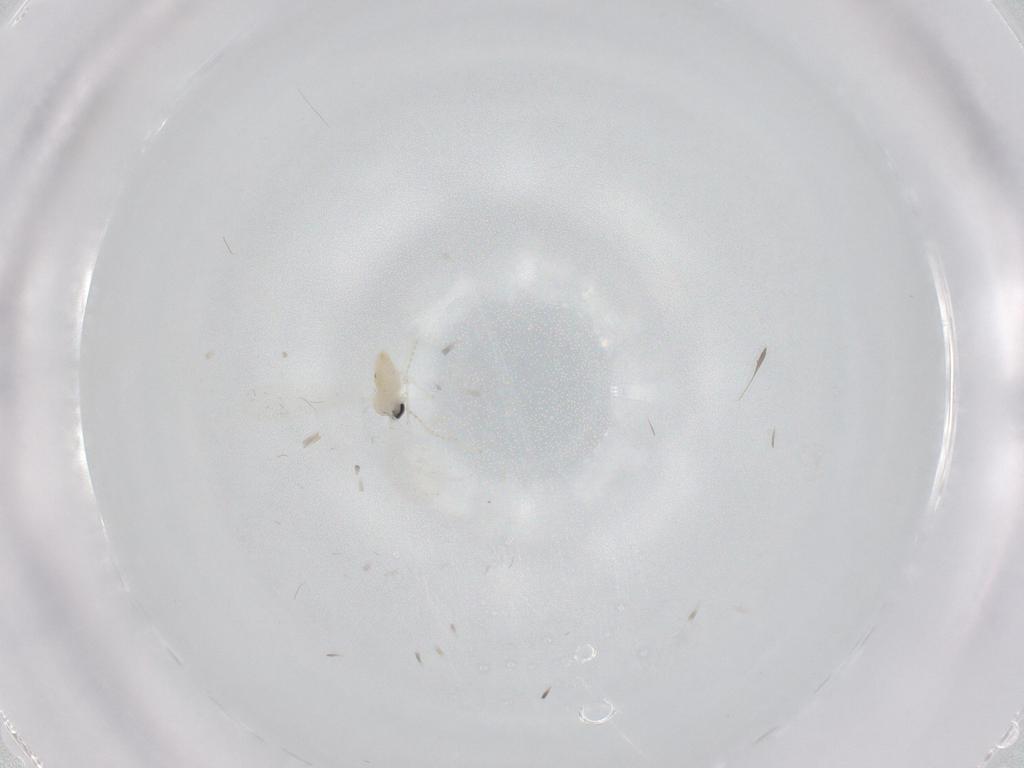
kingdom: Animalia
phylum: Arthropoda
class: Insecta
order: Diptera
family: Cecidomyiidae
